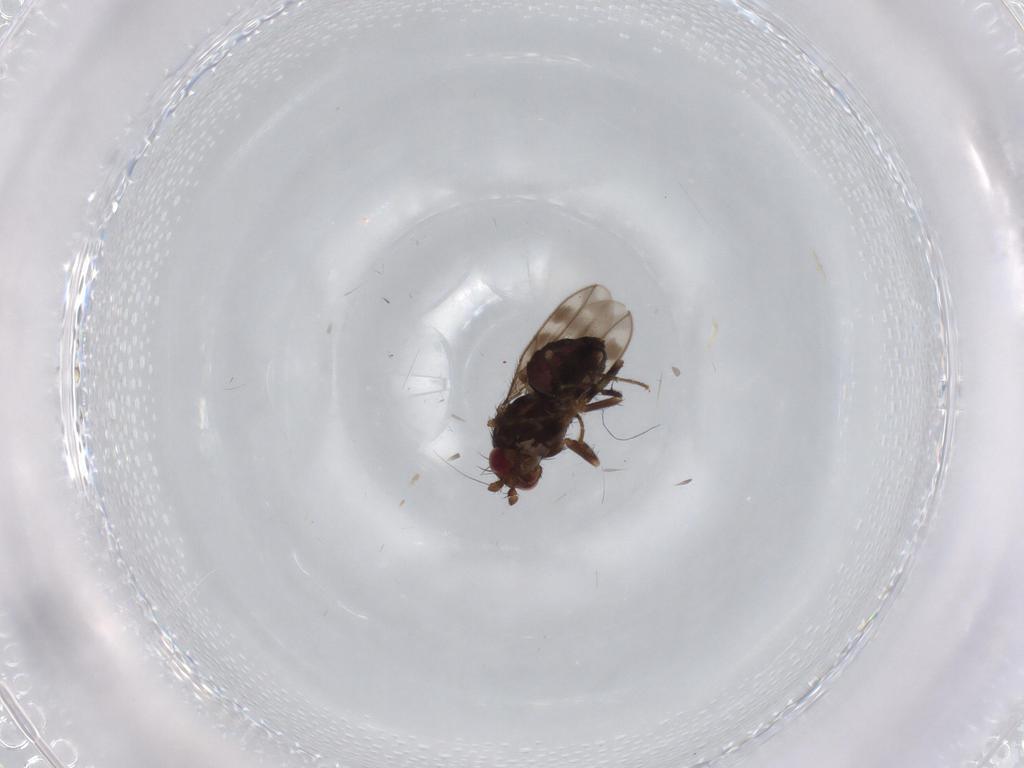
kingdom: Animalia
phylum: Arthropoda
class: Insecta
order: Diptera
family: Sphaeroceridae
